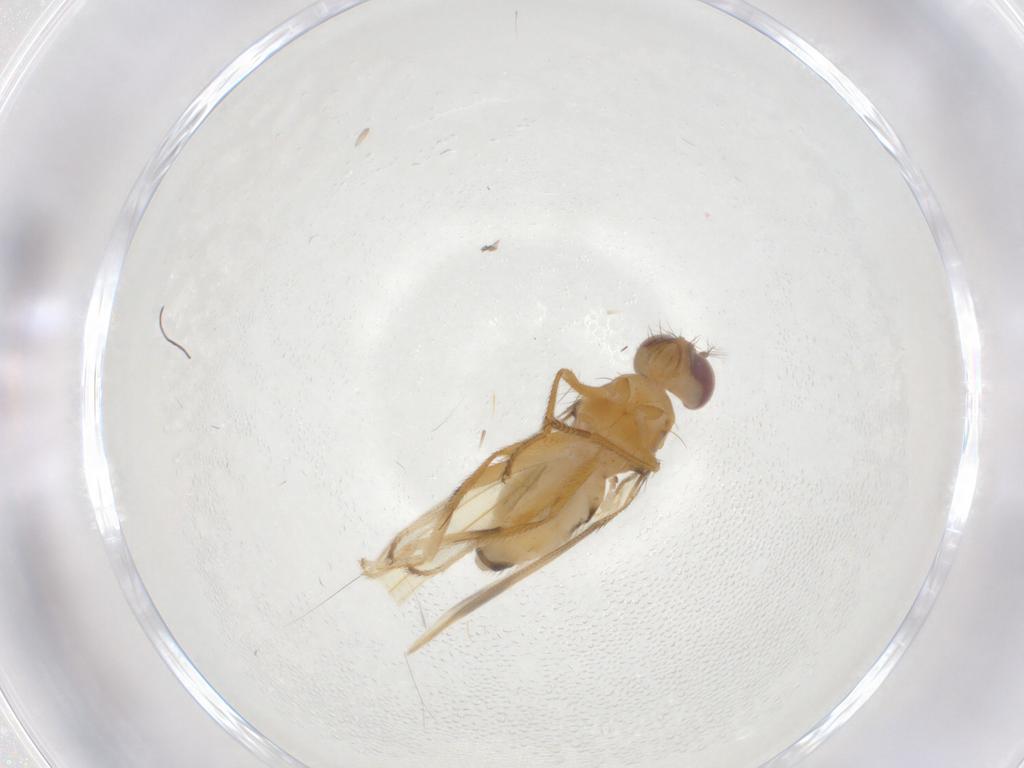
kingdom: Animalia
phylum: Arthropoda
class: Insecta
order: Diptera
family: Periscelididae
